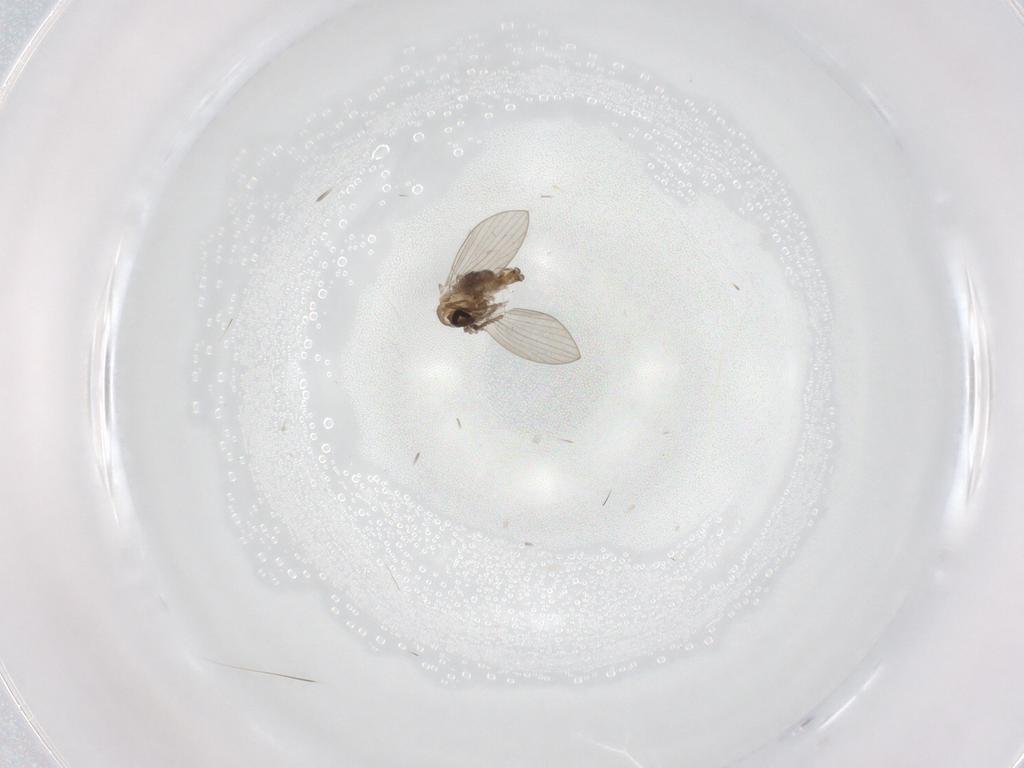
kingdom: Animalia
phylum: Arthropoda
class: Insecta
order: Diptera
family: Psychodidae
